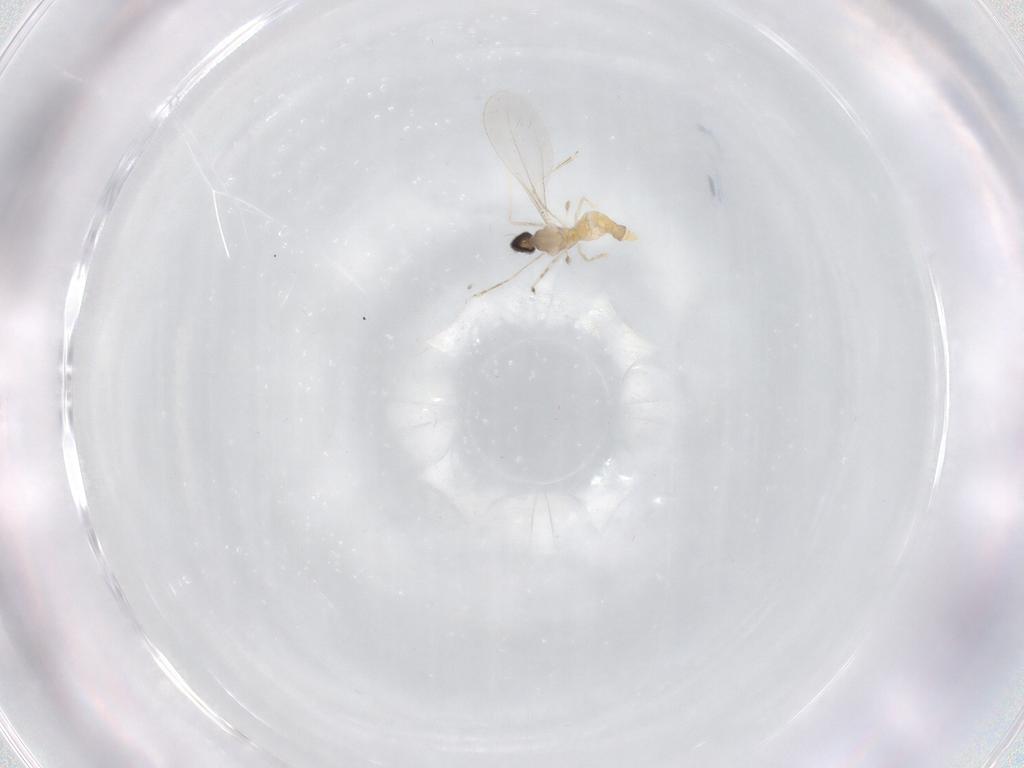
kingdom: Animalia
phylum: Arthropoda
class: Insecta
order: Diptera
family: Cecidomyiidae
